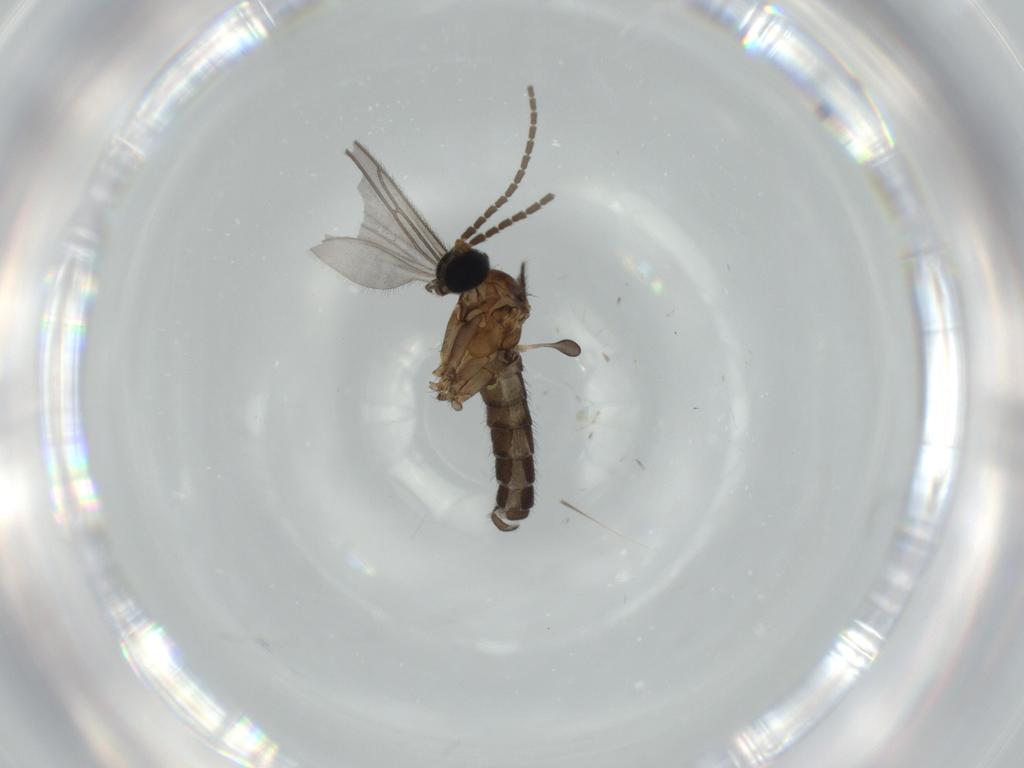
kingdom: Animalia
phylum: Arthropoda
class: Insecta
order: Diptera
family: Sciaridae
